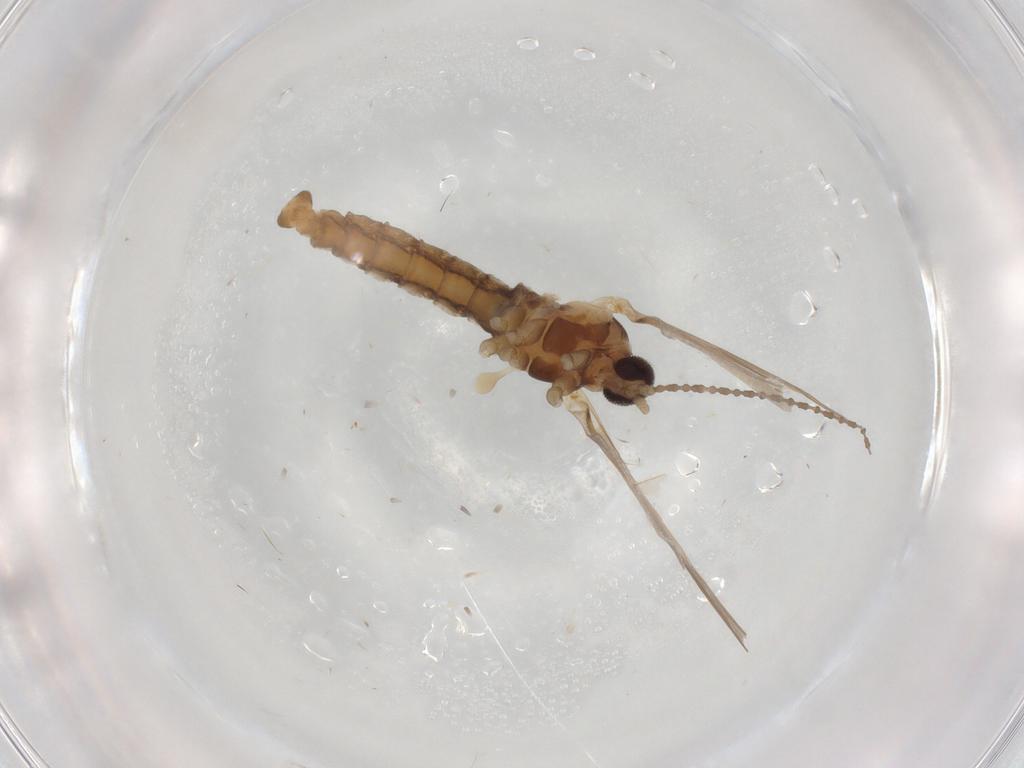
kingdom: Animalia
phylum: Arthropoda
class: Insecta
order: Diptera
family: Cecidomyiidae
